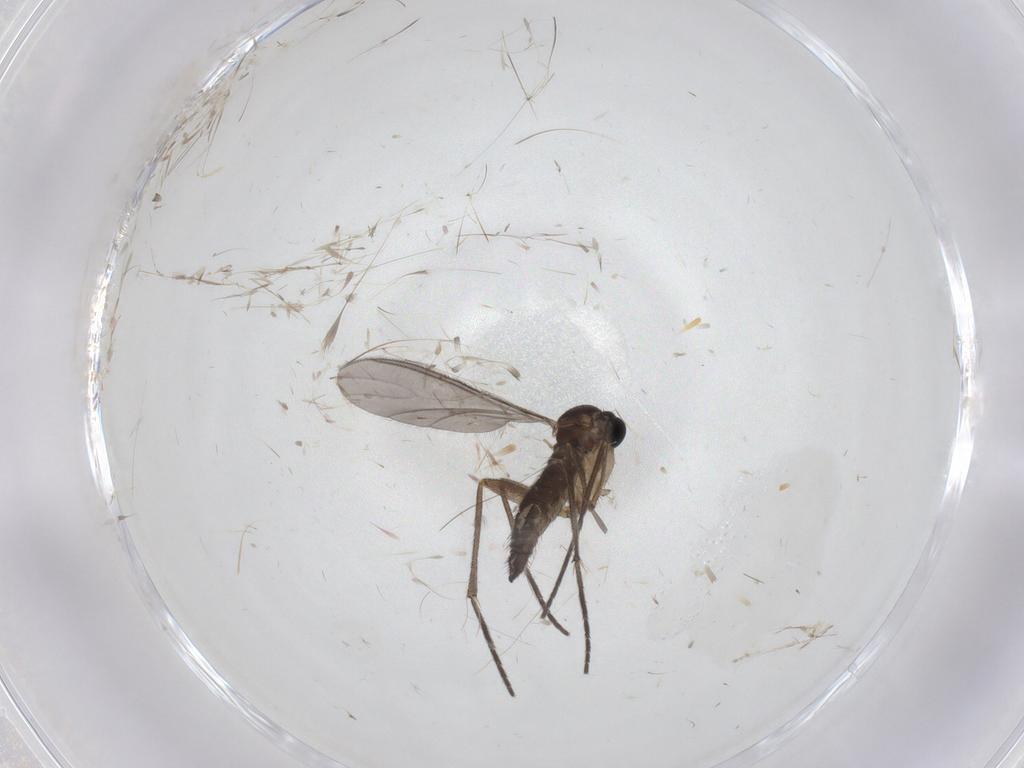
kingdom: Animalia
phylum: Arthropoda
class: Insecta
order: Diptera
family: Sciaridae
